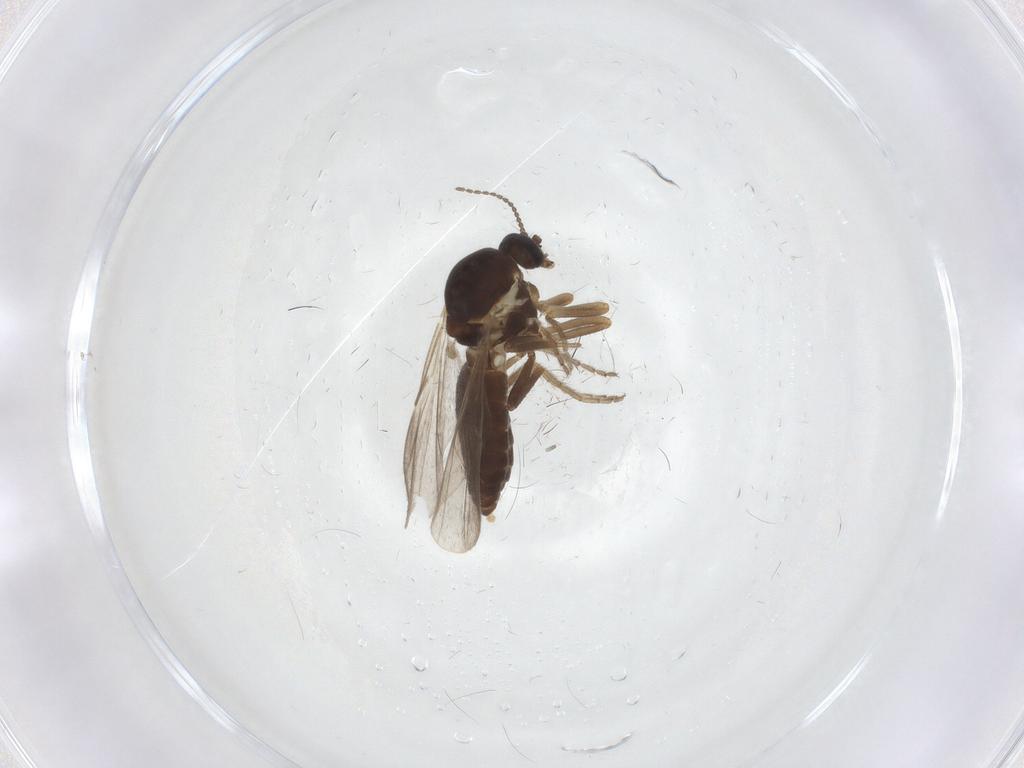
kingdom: Animalia
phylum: Arthropoda
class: Insecta
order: Diptera
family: Ceratopogonidae
